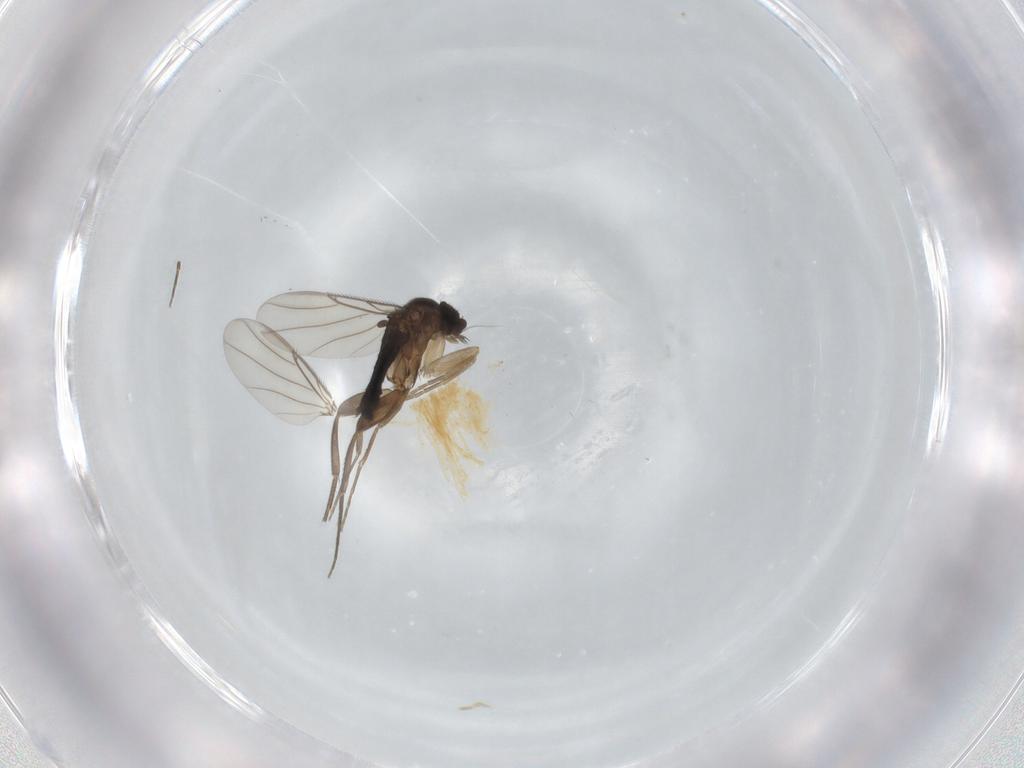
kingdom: Animalia
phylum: Arthropoda
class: Insecta
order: Diptera
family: Phoridae
